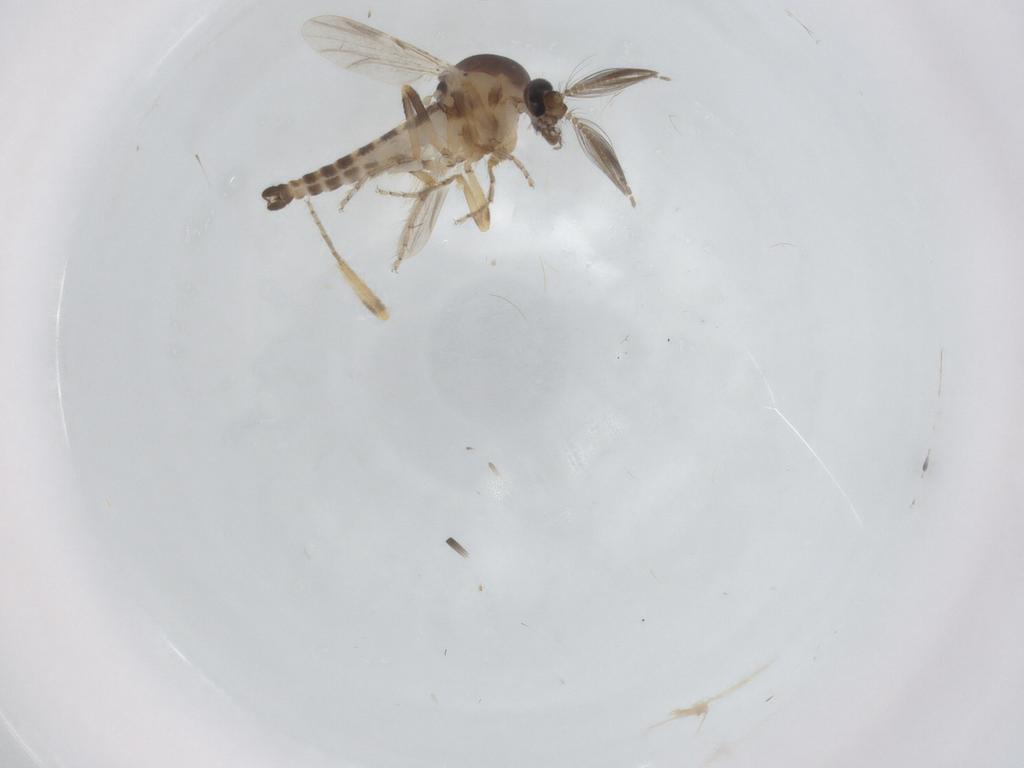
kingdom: Animalia
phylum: Arthropoda
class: Insecta
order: Diptera
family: Ceratopogonidae
